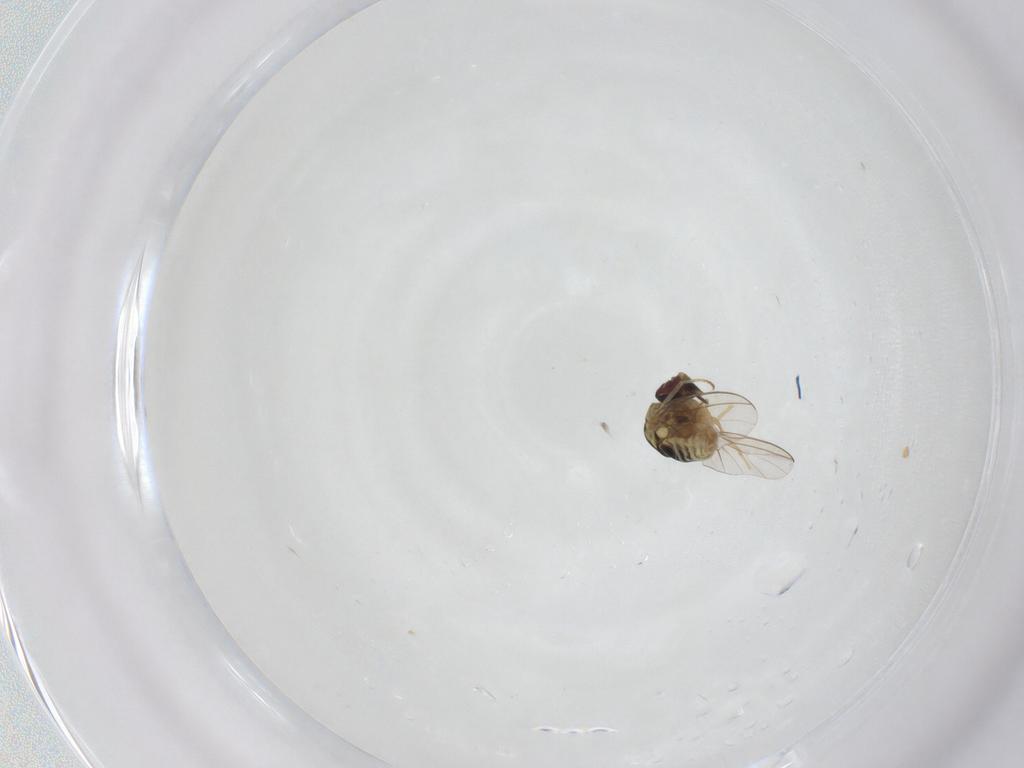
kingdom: Animalia
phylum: Arthropoda
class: Insecta
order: Diptera
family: Mythicomyiidae
